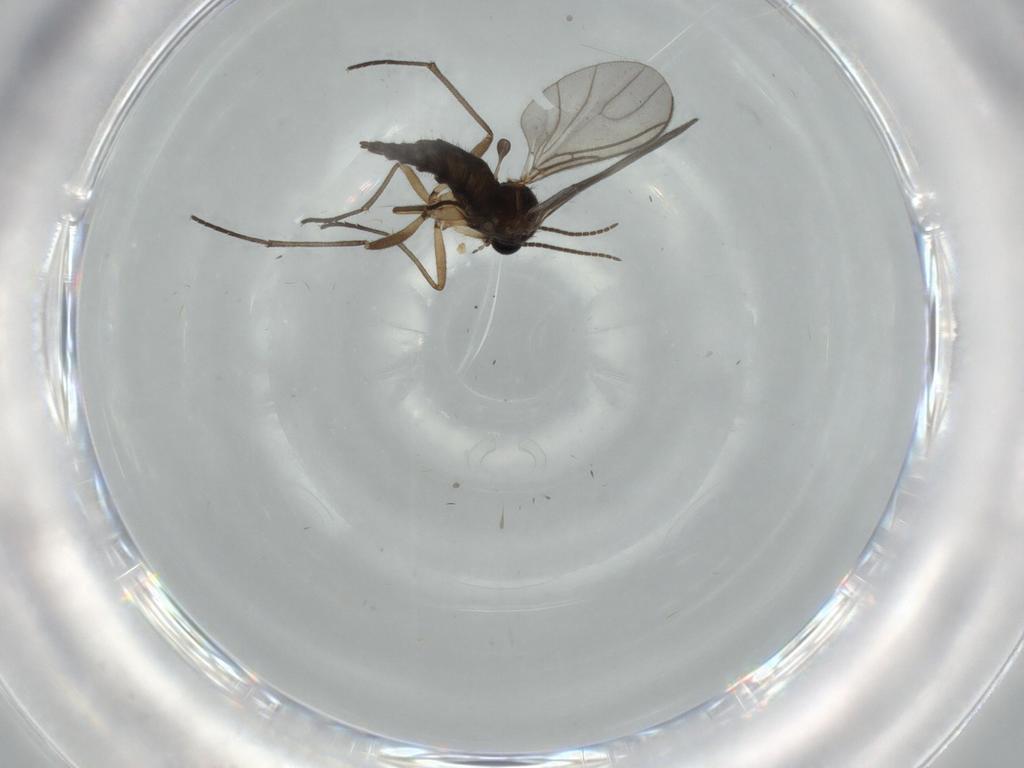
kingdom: Animalia
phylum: Arthropoda
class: Insecta
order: Diptera
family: Sciaridae
